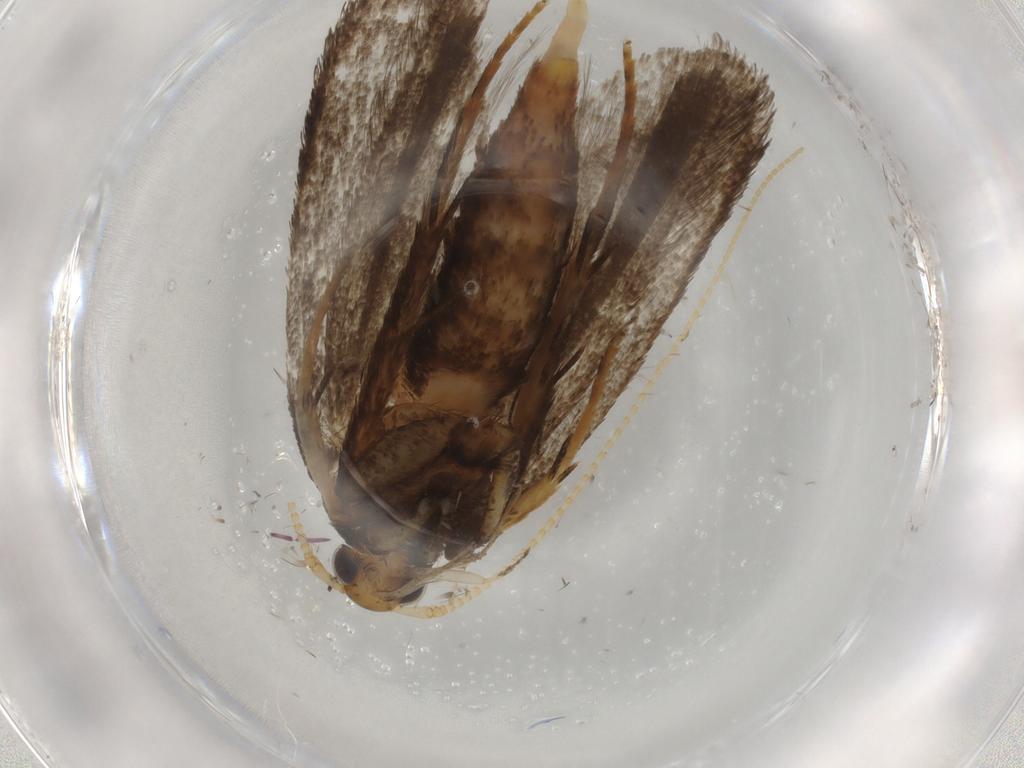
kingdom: Animalia
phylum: Arthropoda
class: Insecta
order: Lepidoptera
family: Lecithoceridae
